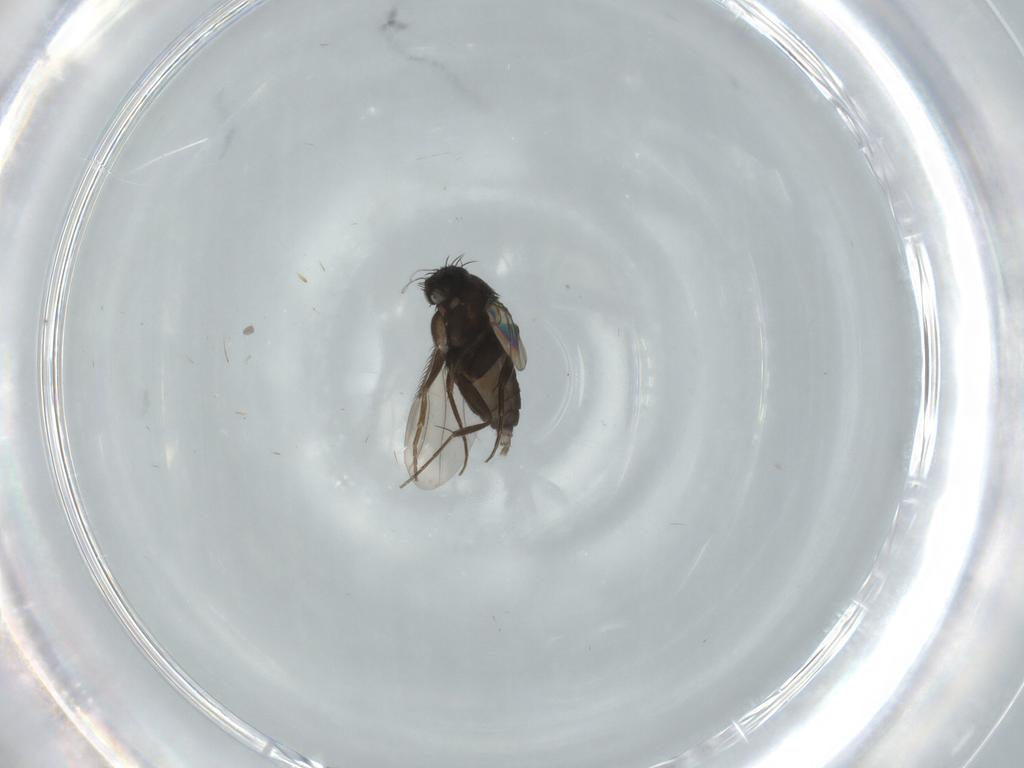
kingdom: Animalia
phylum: Arthropoda
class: Insecta
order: Diptera
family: Phoridae
